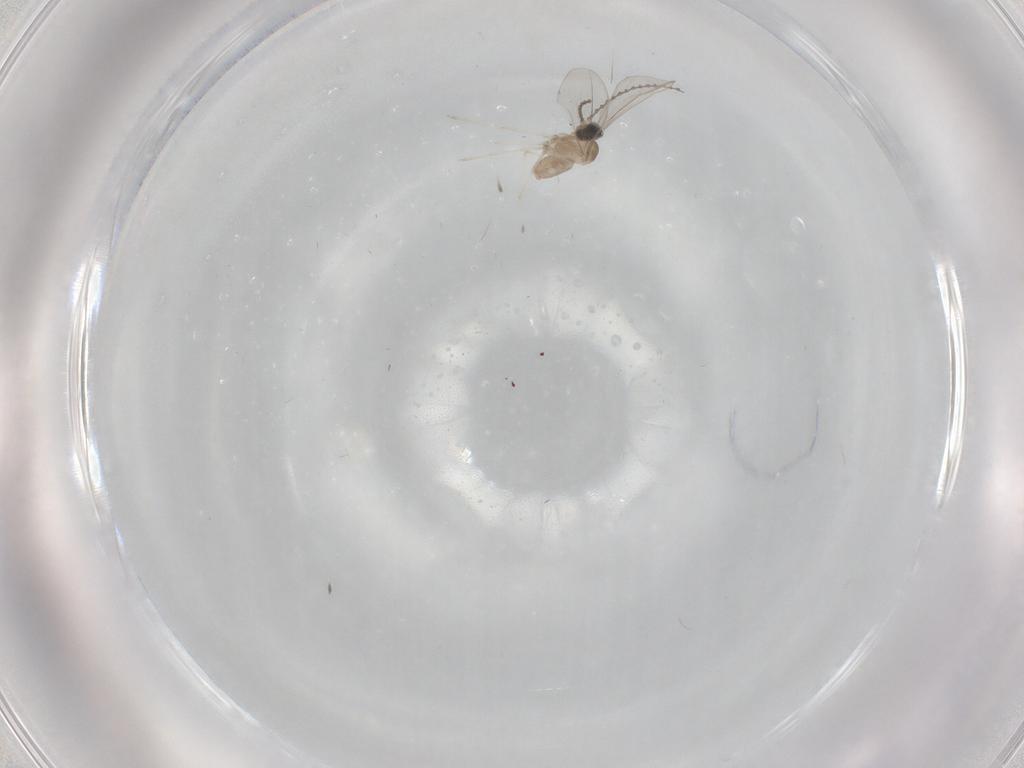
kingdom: Animalia
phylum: Arthropoda
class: Insecta
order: Diptera
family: Cecidomyiidae
